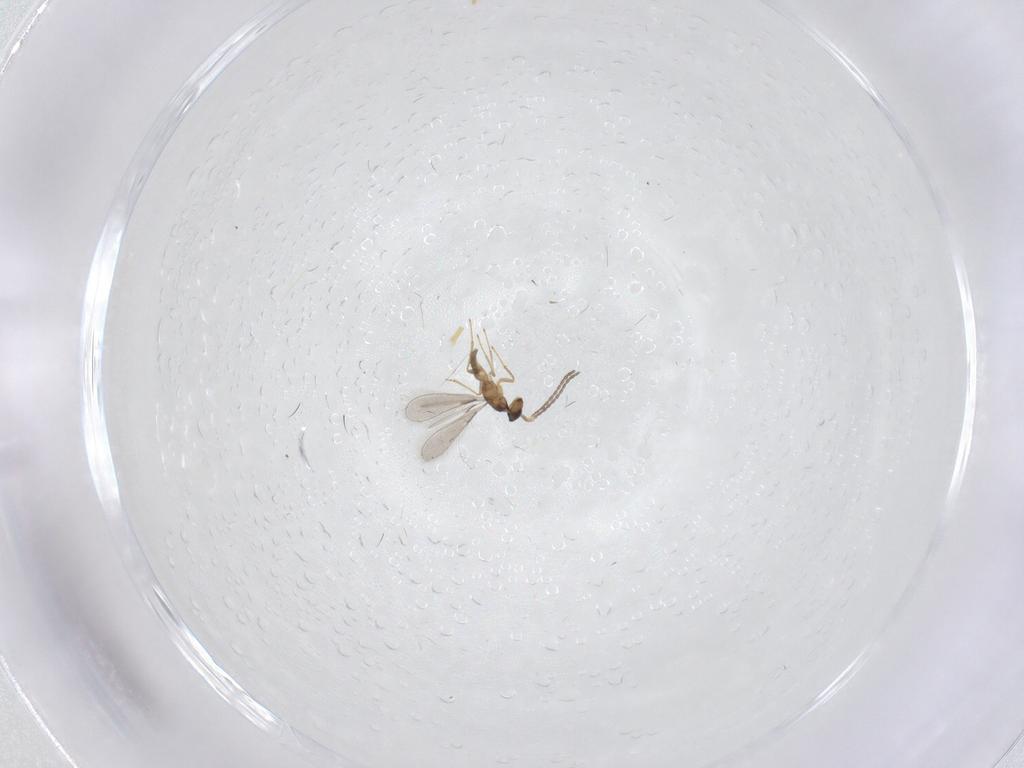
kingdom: Animalia
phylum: Arthropoda
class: Insecta
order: Hymenoptera
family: Mymaridae
